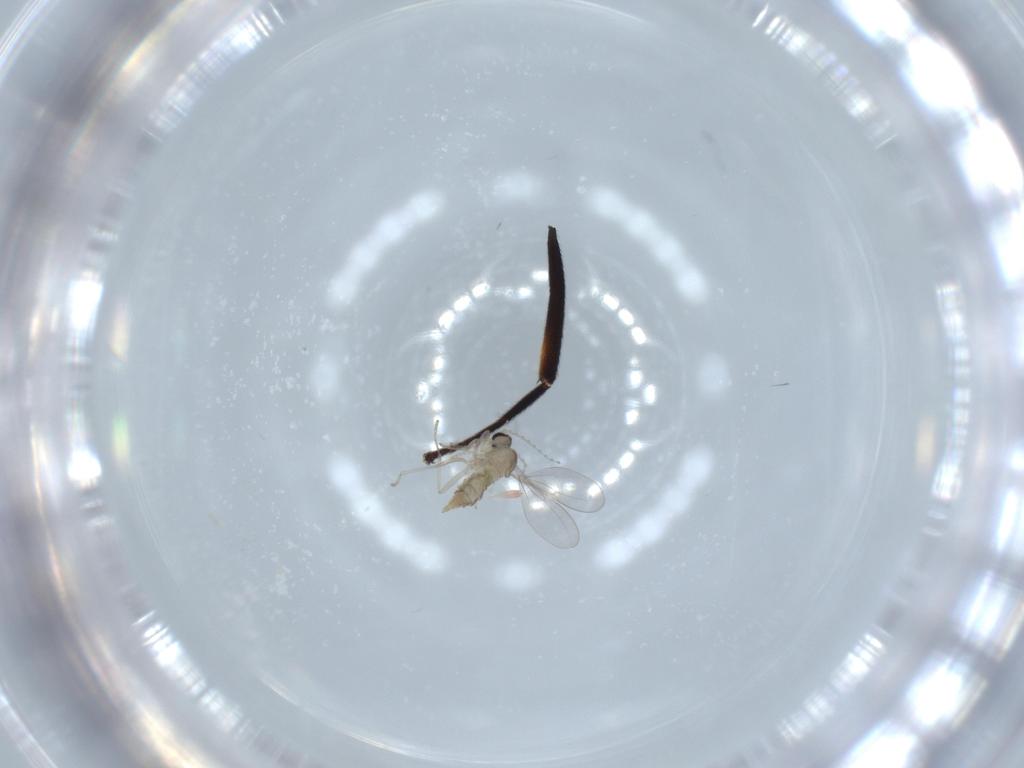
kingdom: Animalia
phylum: Arthropoda
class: Insecta
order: Diptera
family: Cecidomyiidae
